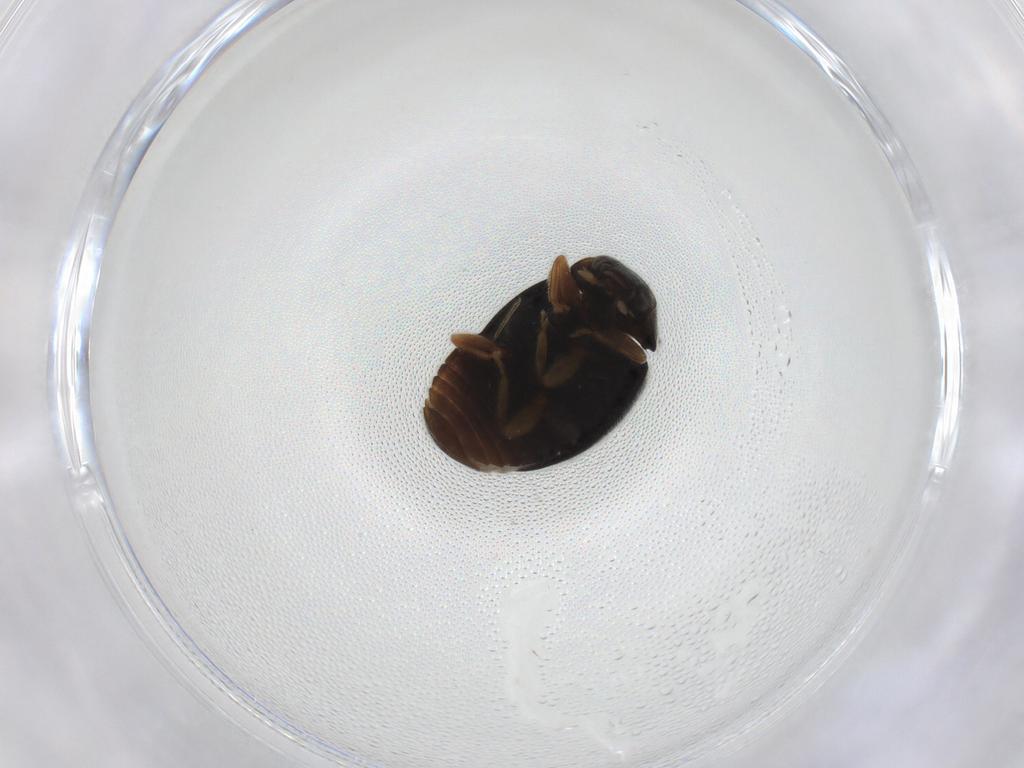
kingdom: Animalia
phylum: Arthropoda
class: Insecta
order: Coleoptera
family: Coccinellidae
